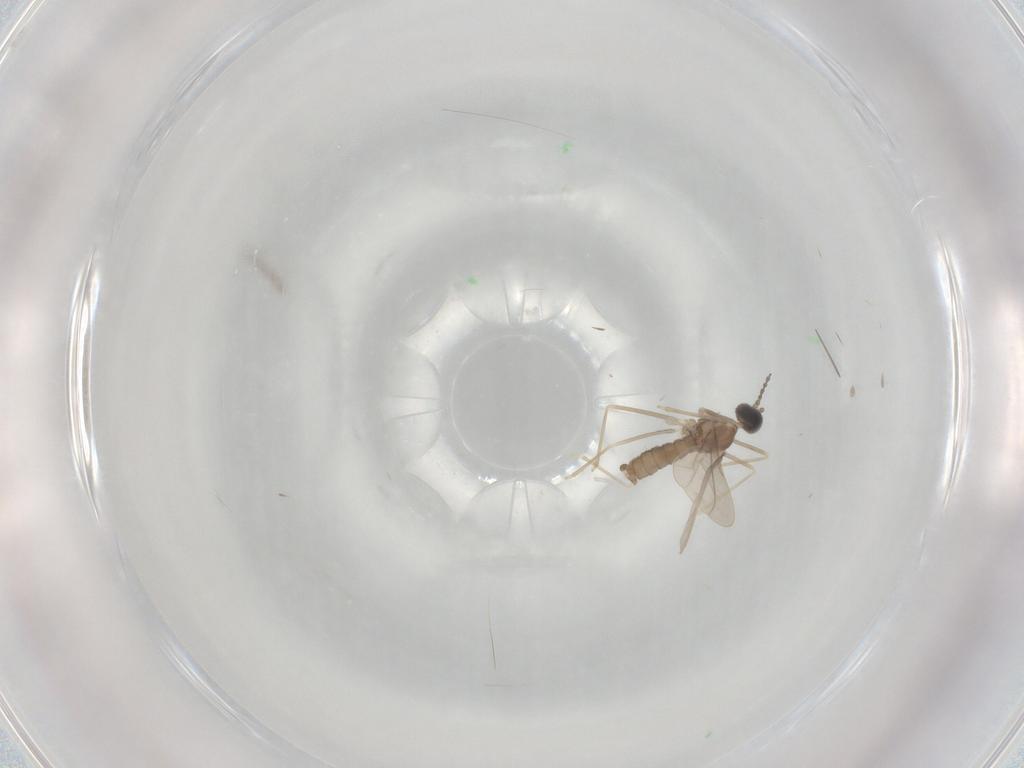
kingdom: Animalia
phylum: Arthropoda
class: Insecta
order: Diptera
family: Cecidomyiidae
